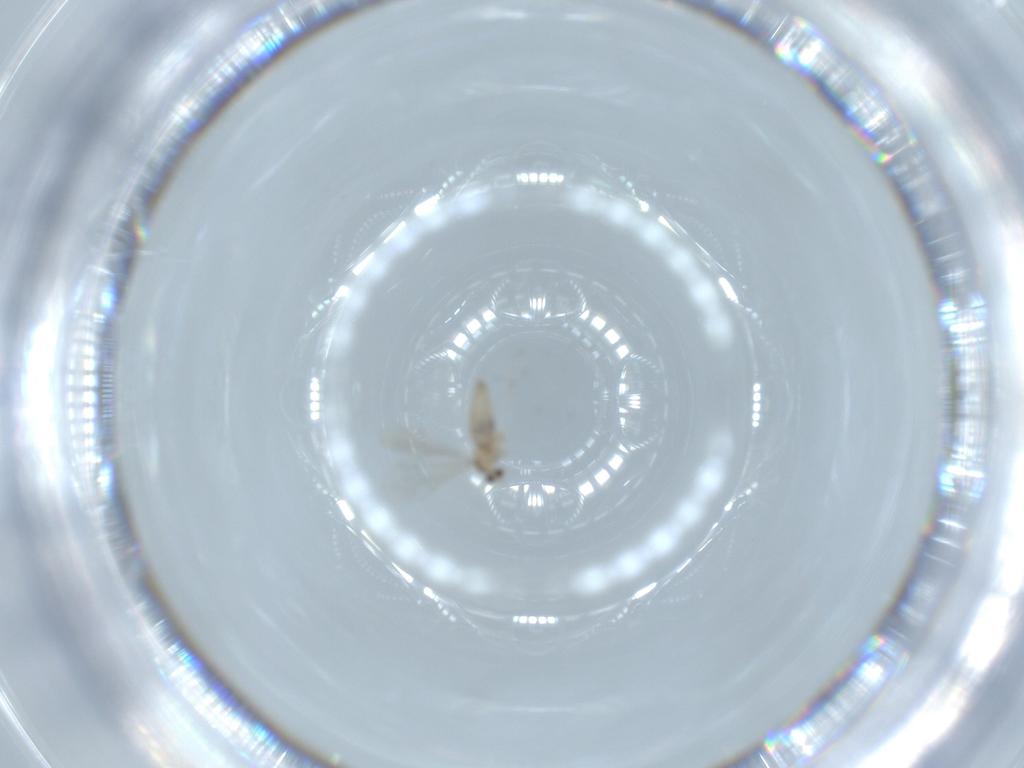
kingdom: Animalia
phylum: Arthropoda
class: Insecta
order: Diptera
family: Cecidomyiidae
